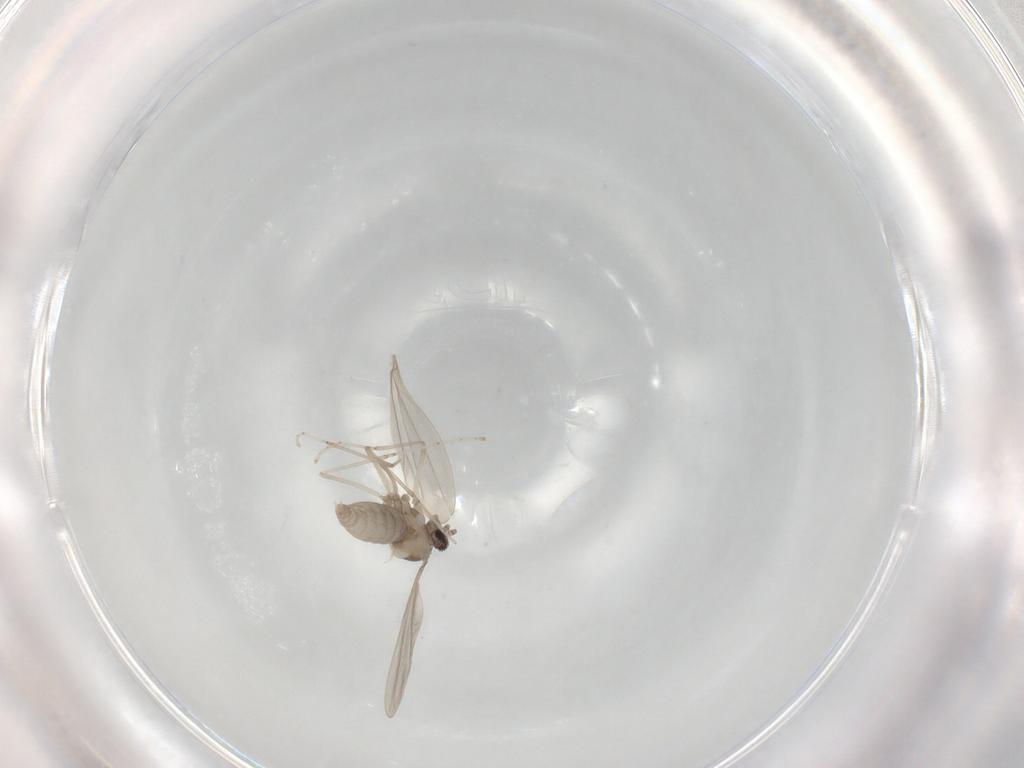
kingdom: Animalia
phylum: Arthropoda
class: Insecta
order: Diptera
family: Cecidomyiidae
